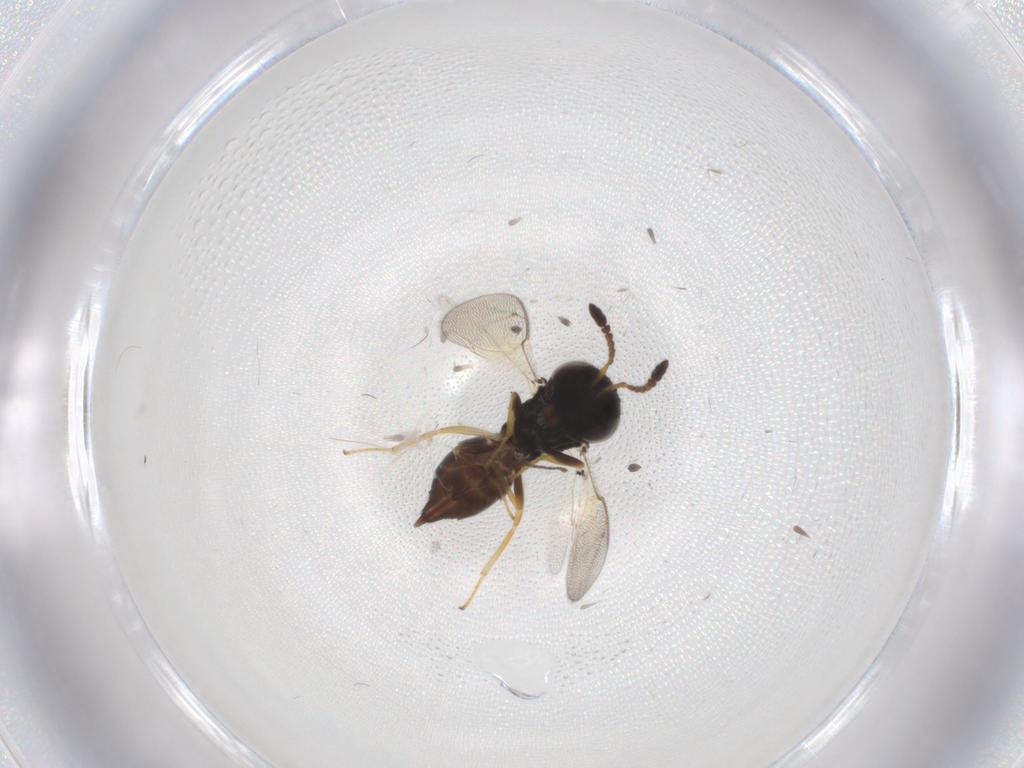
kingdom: Animalia
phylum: Arthropoda
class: Insecta
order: Hymenoptera
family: Pteromalidae
